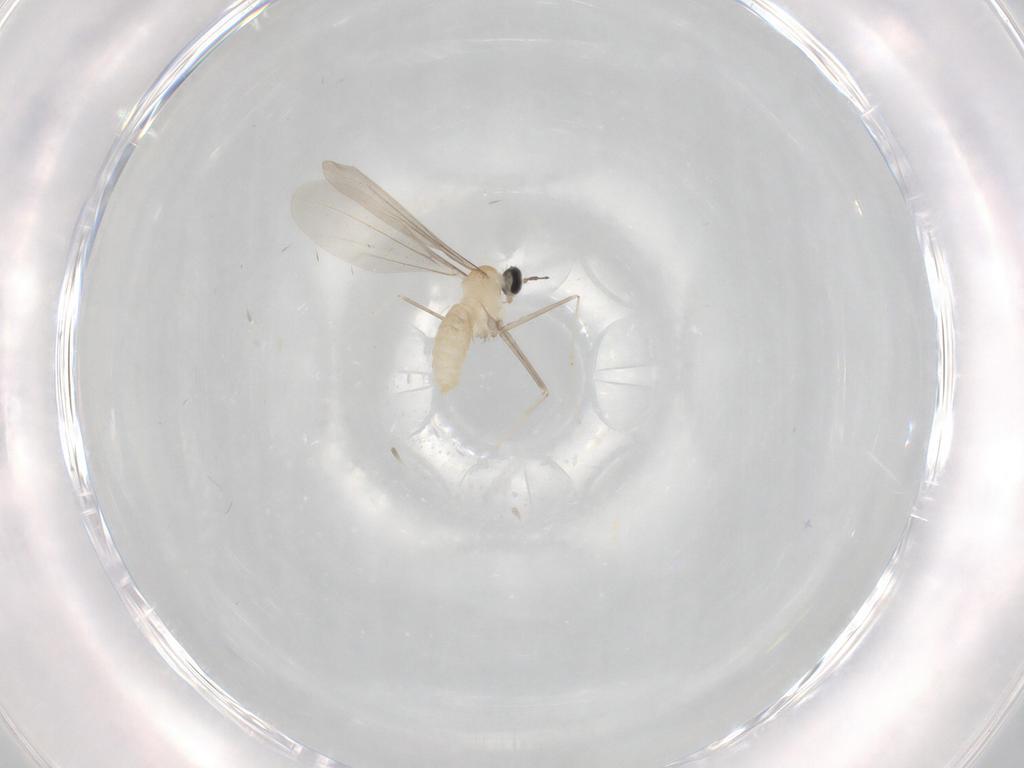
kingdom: Animalia
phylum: Arthropoda
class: Insecta
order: Diptera
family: Cecidomyiidae
